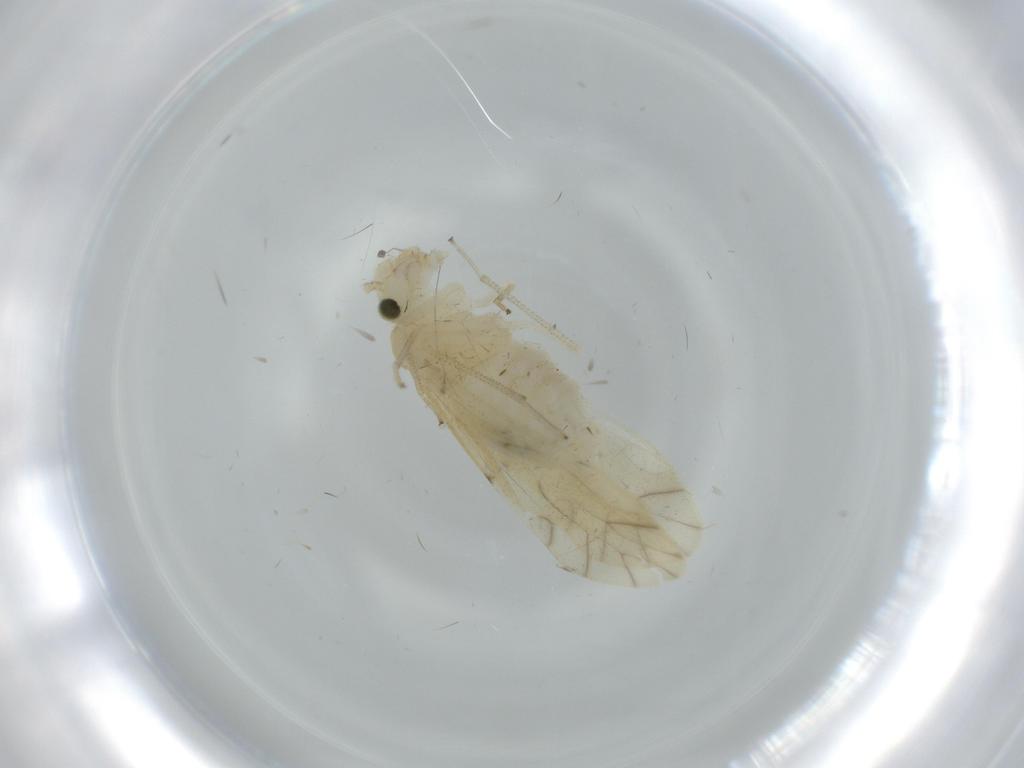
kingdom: Animalia
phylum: Arthropoda
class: Insecta
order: Psocodea
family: Caeciliusidae
